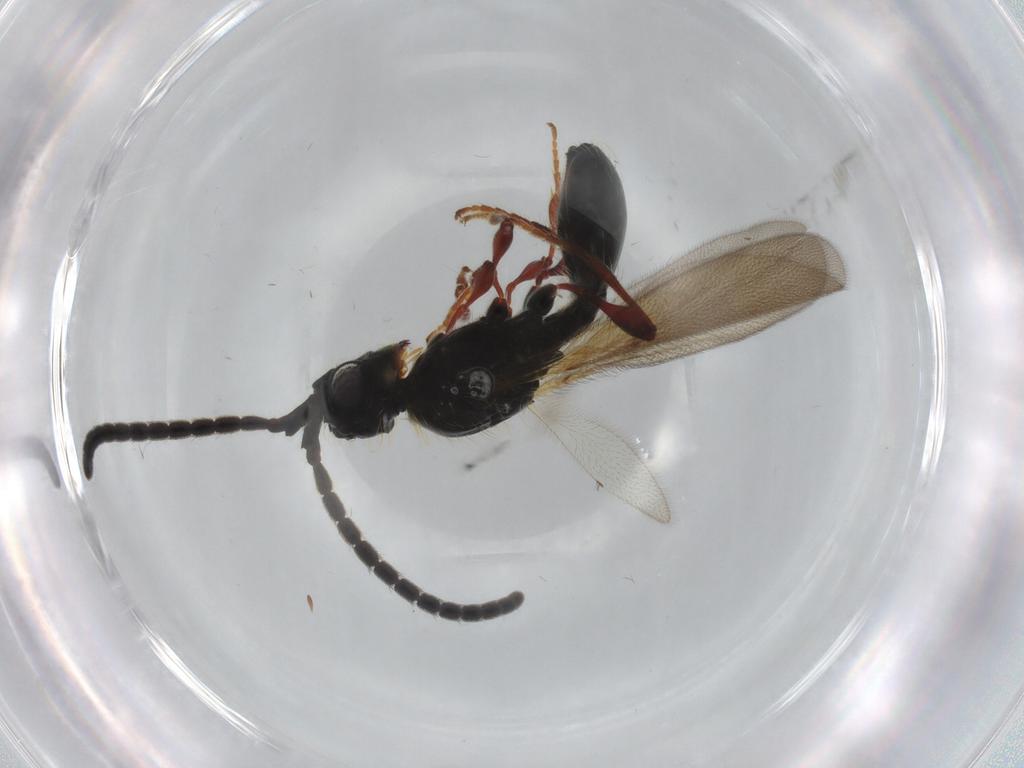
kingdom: Animalia
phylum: Arthropoda
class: Insecta
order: Hymenoptera
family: Diapriidae
